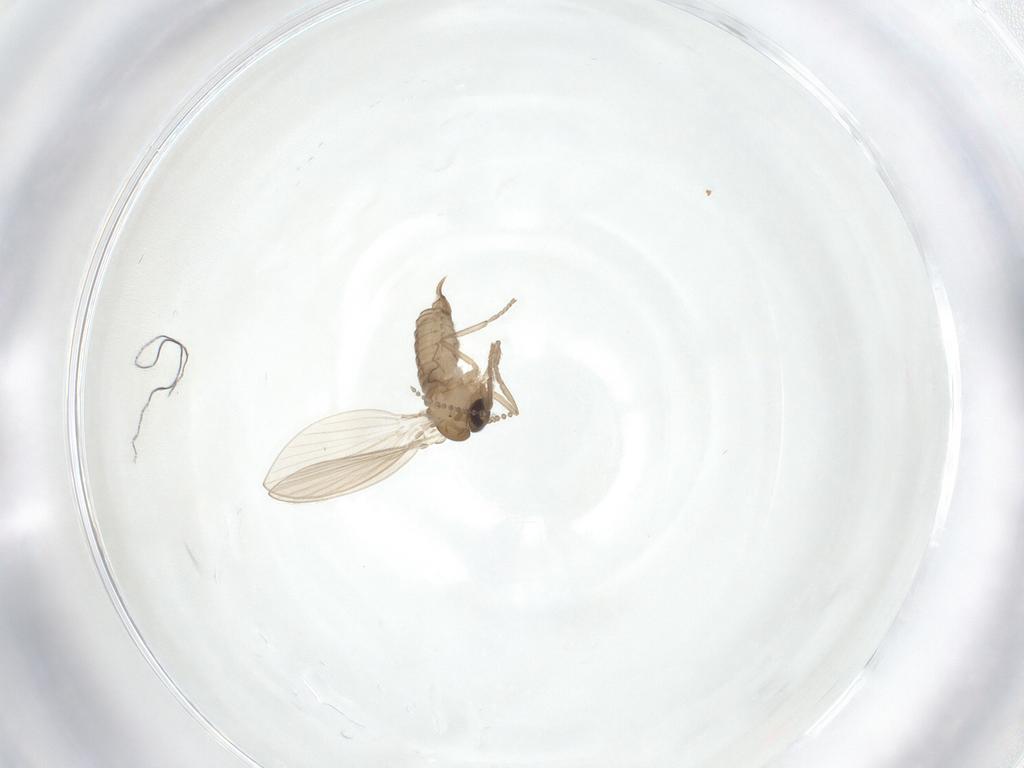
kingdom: Animalia
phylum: Arthropoda
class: Insecta
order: Diptera
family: Psychodidae
